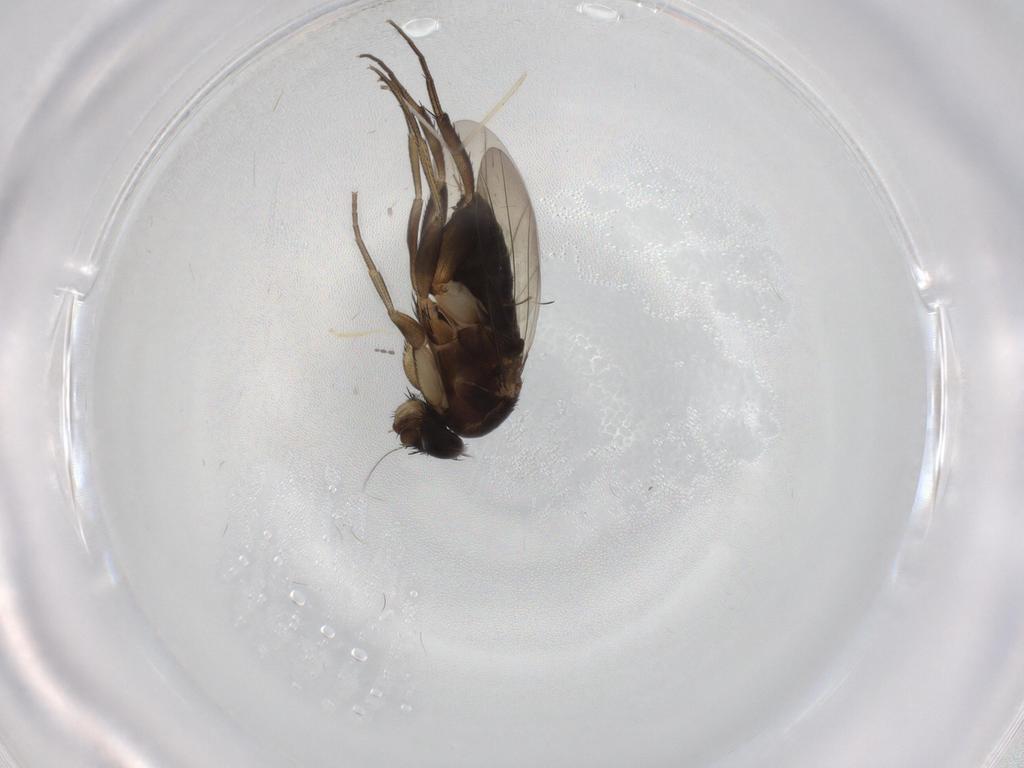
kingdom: Animalia
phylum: Arthropoda
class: Insecta
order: Diptera
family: Cecidomyiidae
